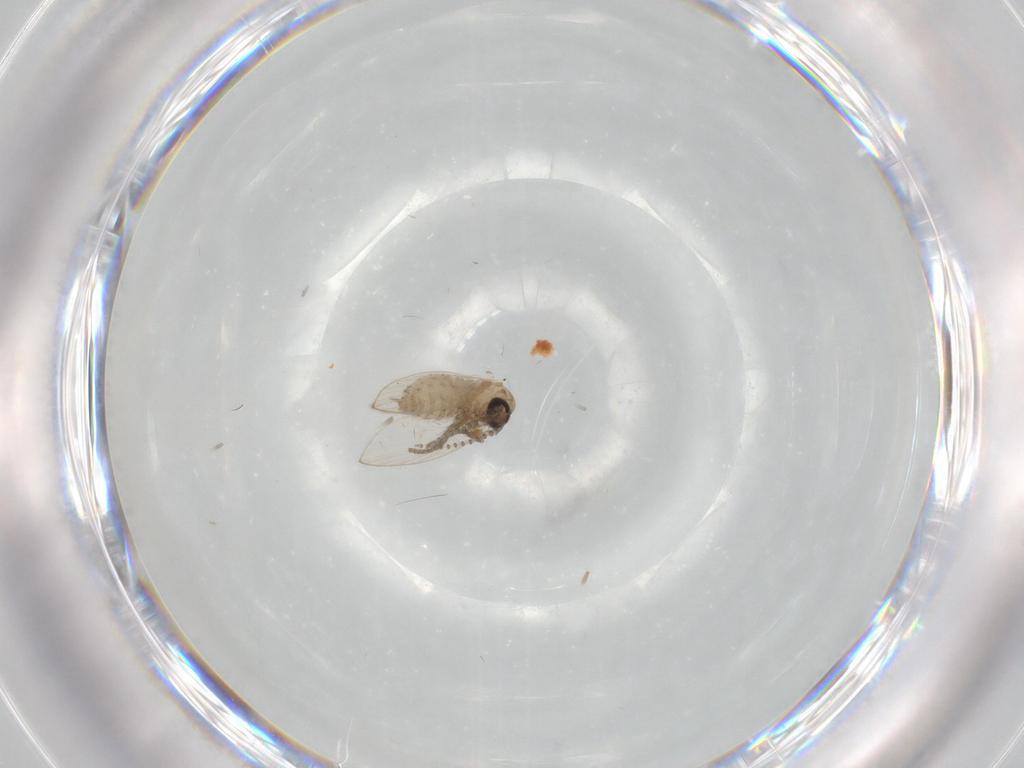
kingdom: Animalia
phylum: Arthropoda
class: Insecta
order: Diptera
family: Psychodidae
